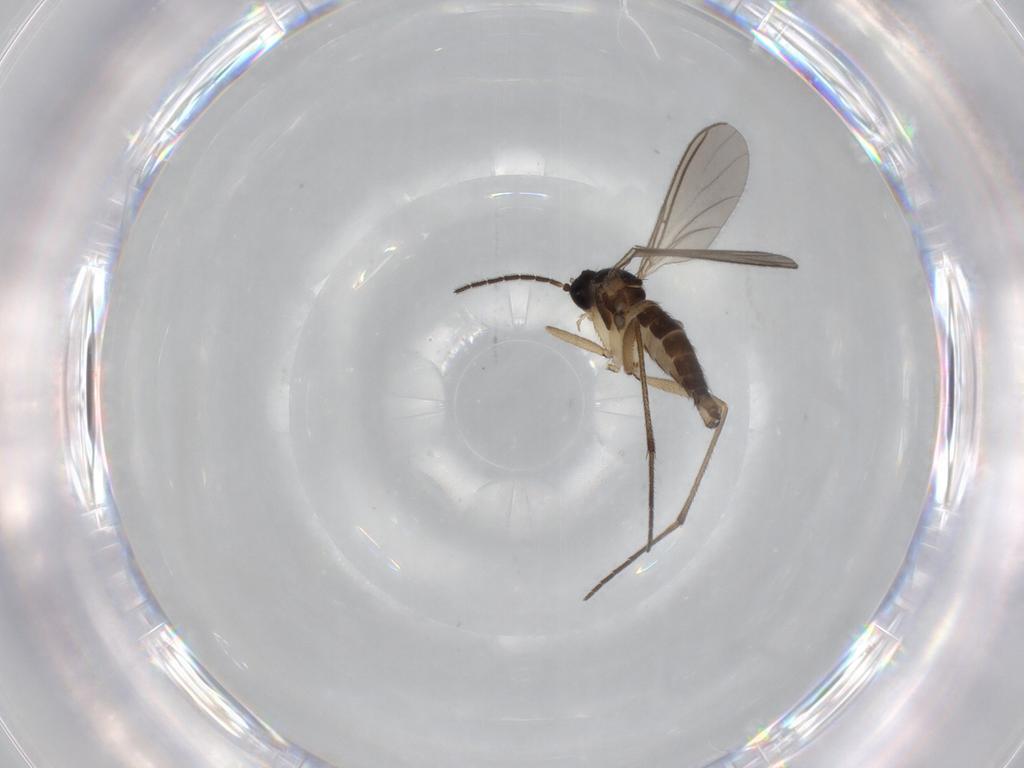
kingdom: Animalia
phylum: Arthropoda
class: Insecta
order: Diptera
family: Sciaridae
